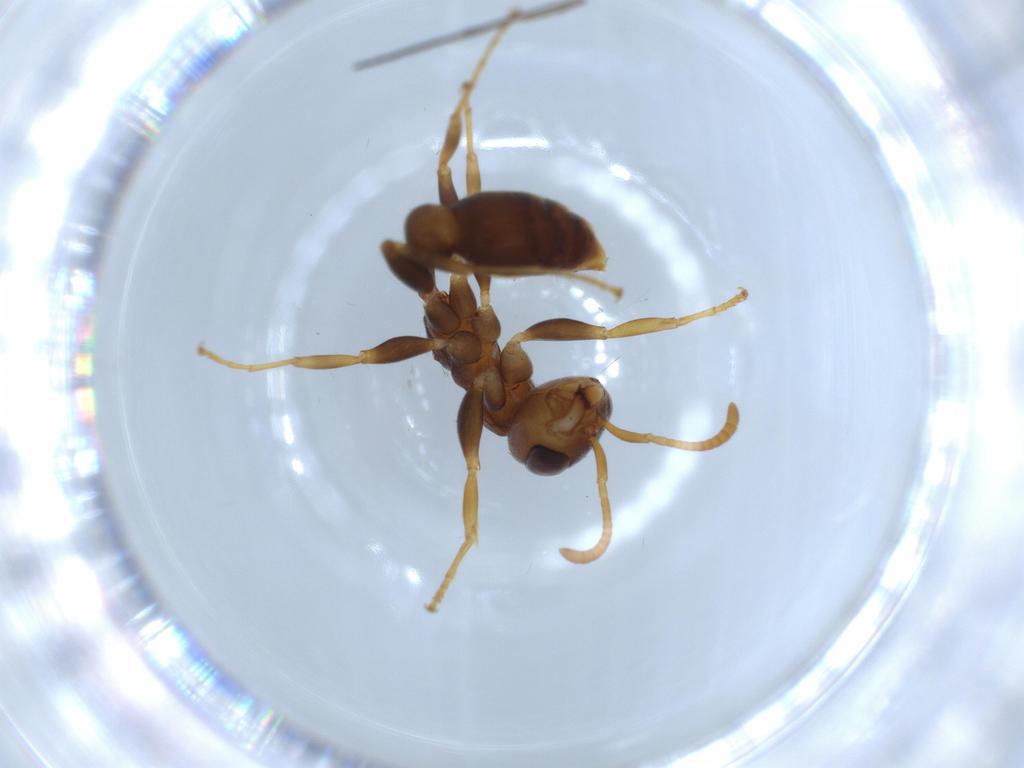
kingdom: Animalia
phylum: Arthropoda
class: Insecta
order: Hymenoptera
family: Formicidae
